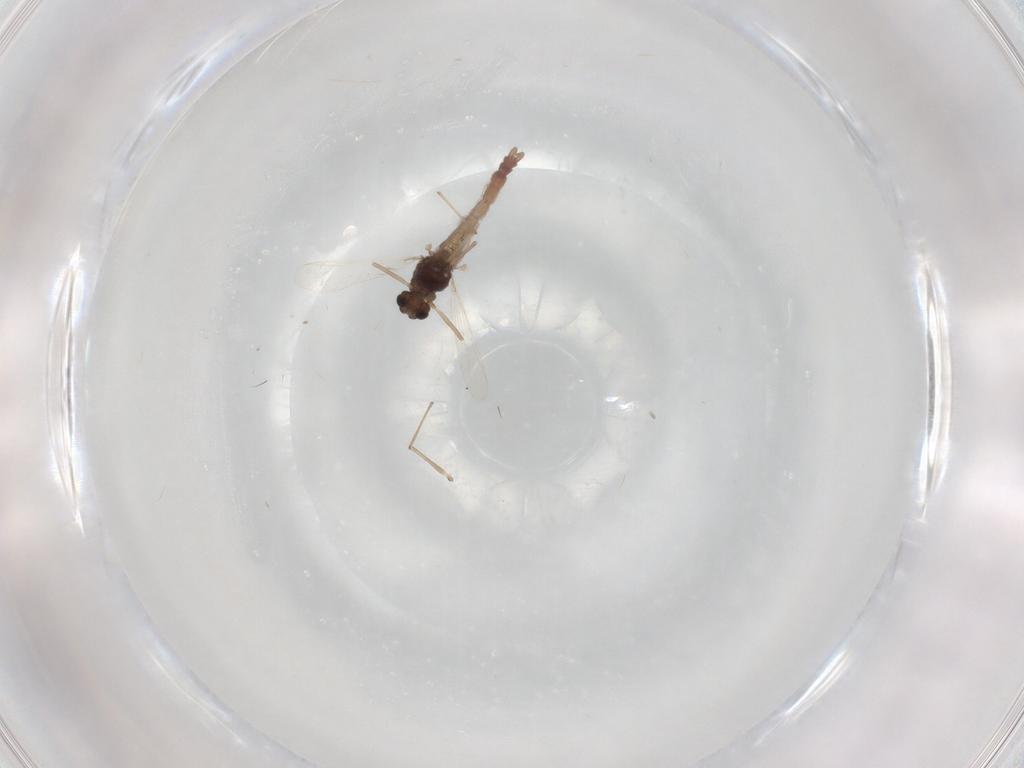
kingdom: Animalia
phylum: Arthropoda
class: Insecta
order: Diptera
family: Chironomidae
